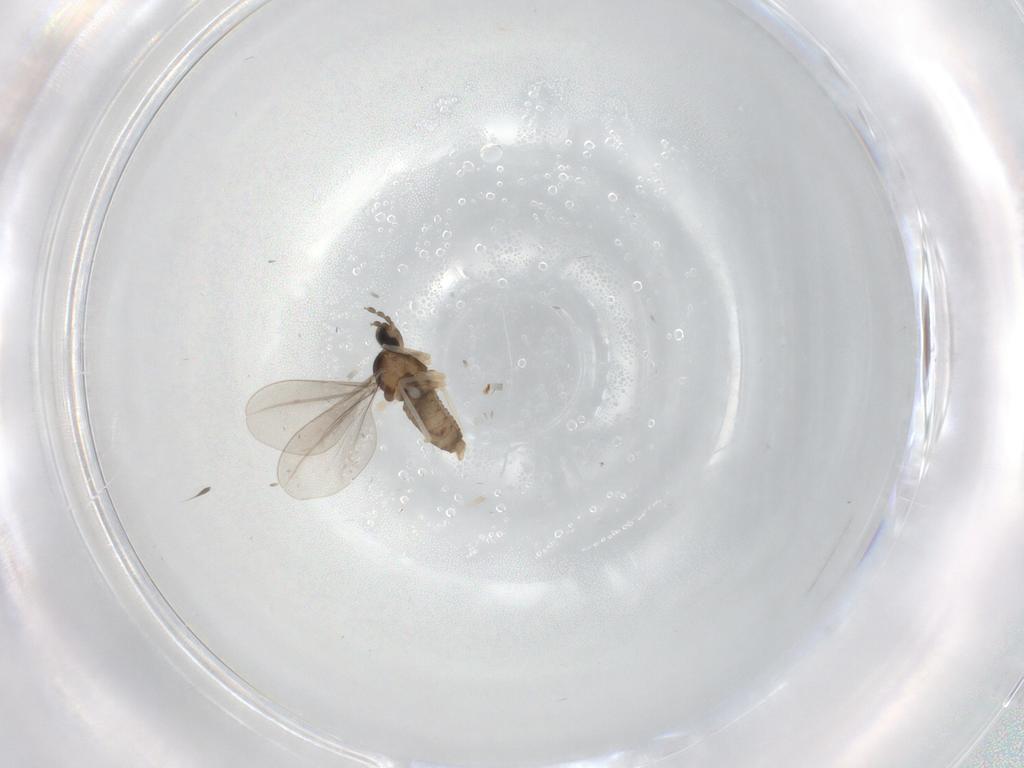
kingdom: Animalia
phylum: Arthropoda
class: Insecta
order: Diptera
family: Cecidomyiidae
